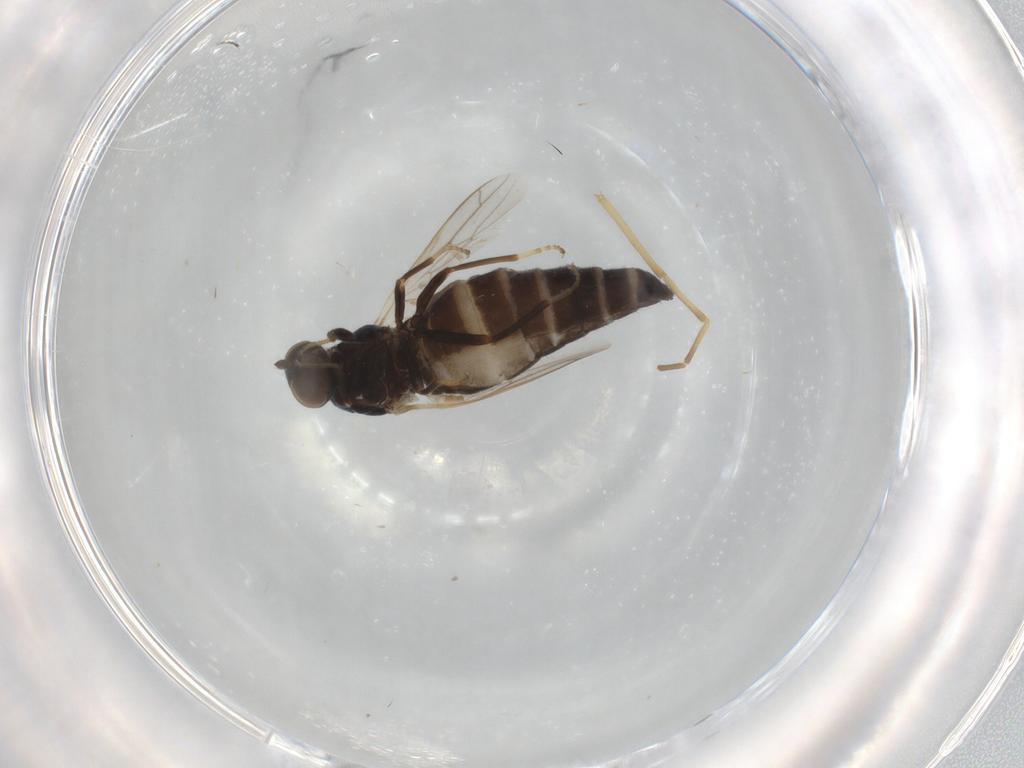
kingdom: Animalia
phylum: Arthropoda
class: Insecta
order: Diptera
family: Scenopinidae
